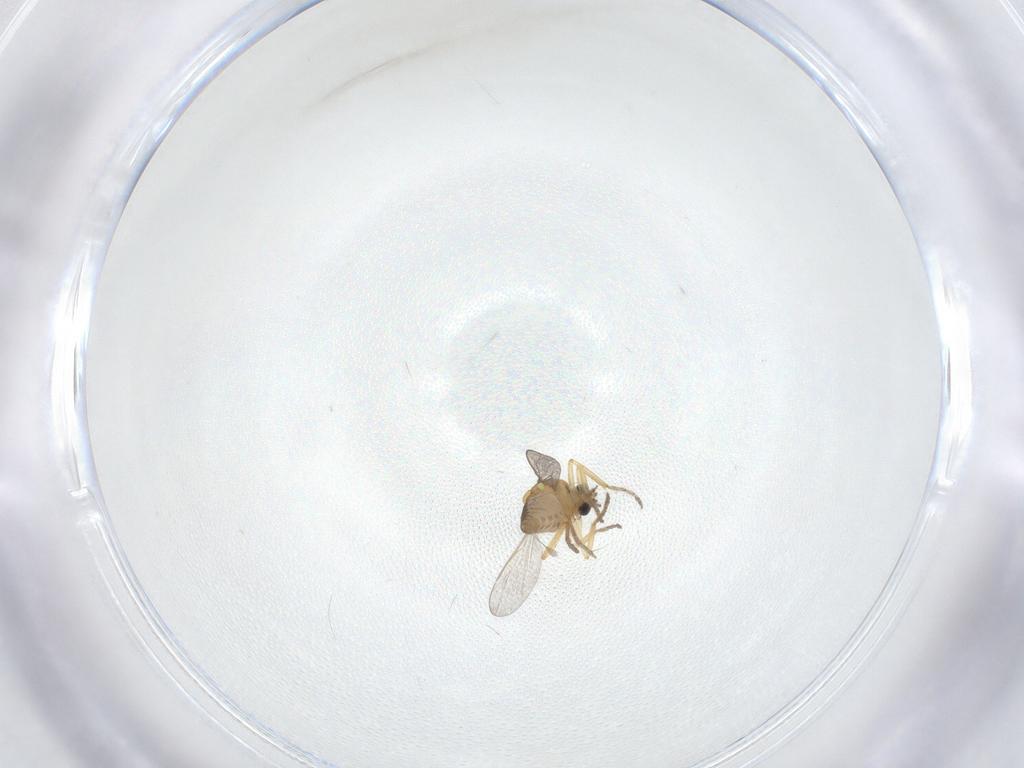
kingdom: Animalia
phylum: Arthropoda
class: Insecta
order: Diptera
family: Ceratopogonidae
